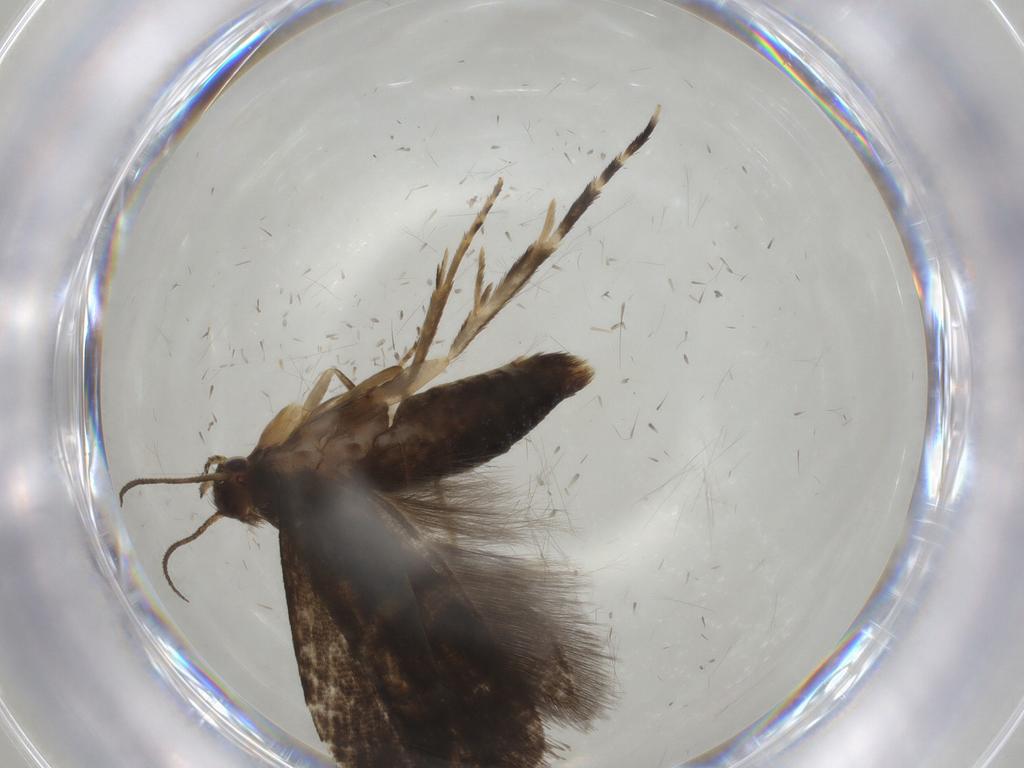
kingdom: Animalia
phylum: Arthropoda
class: Insecta
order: Lepidoptera
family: Glyphipterigidae
